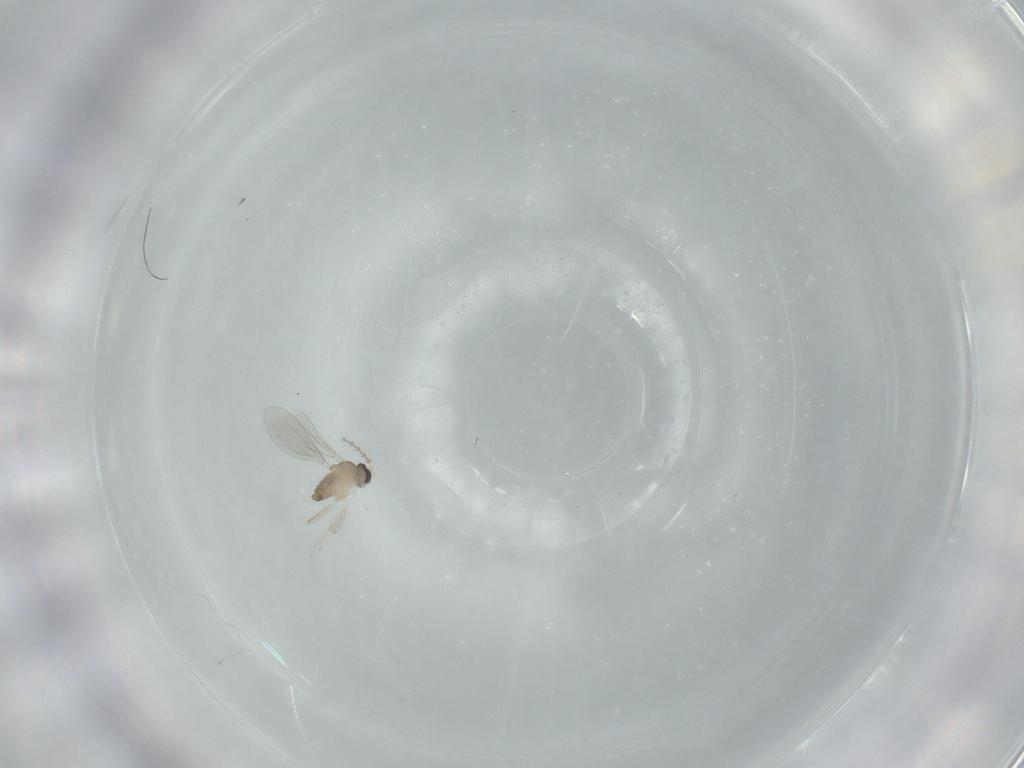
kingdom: Animalia
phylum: Arthropoda
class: Insecta
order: Diptera
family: Cecidomyiidae
